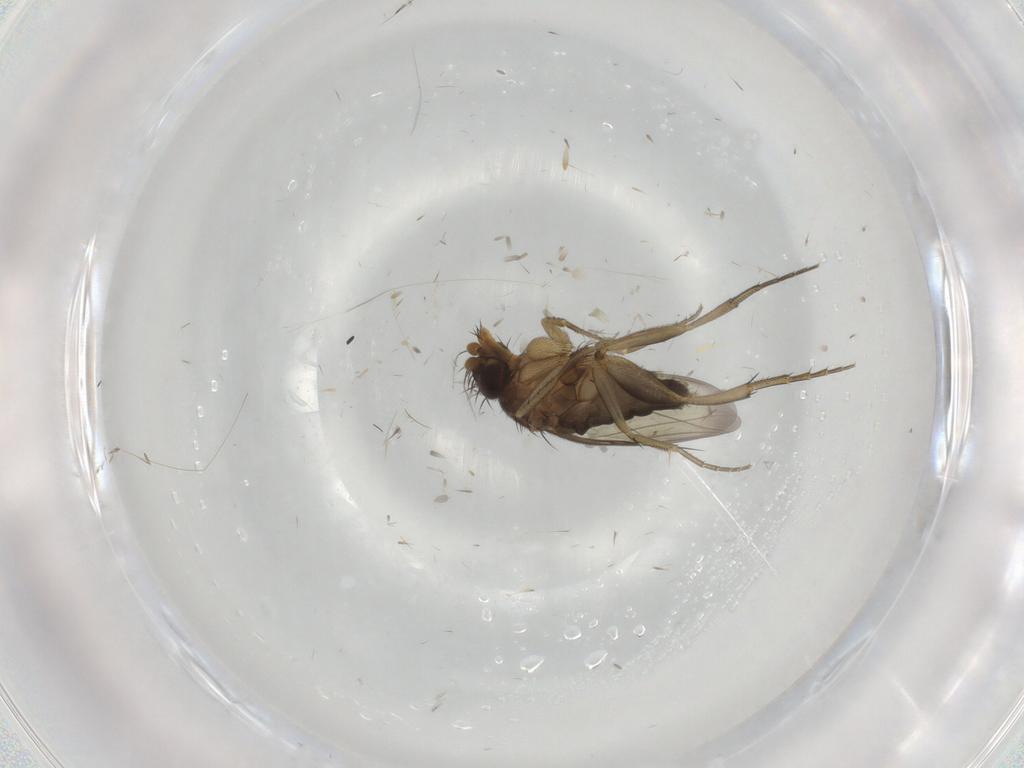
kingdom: Animalia
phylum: Arthropoda
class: Insecta
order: Diptera
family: Phoridae
